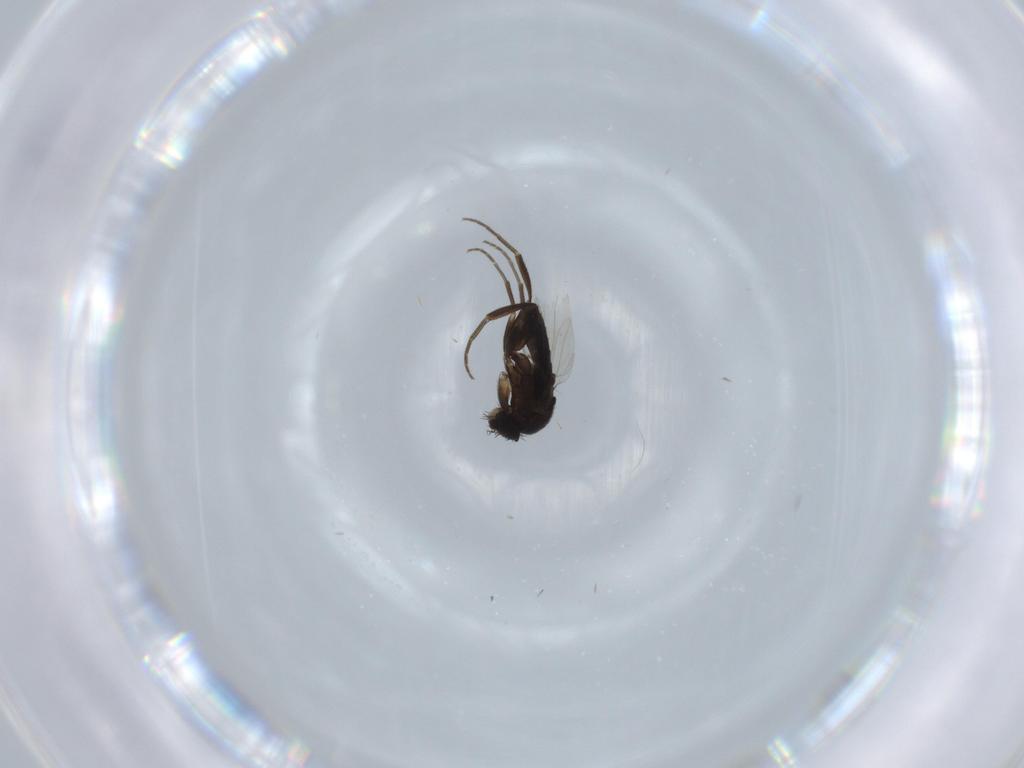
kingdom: Animalia
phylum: Arthropoda
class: Insecta
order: Diptera
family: Phoridae
